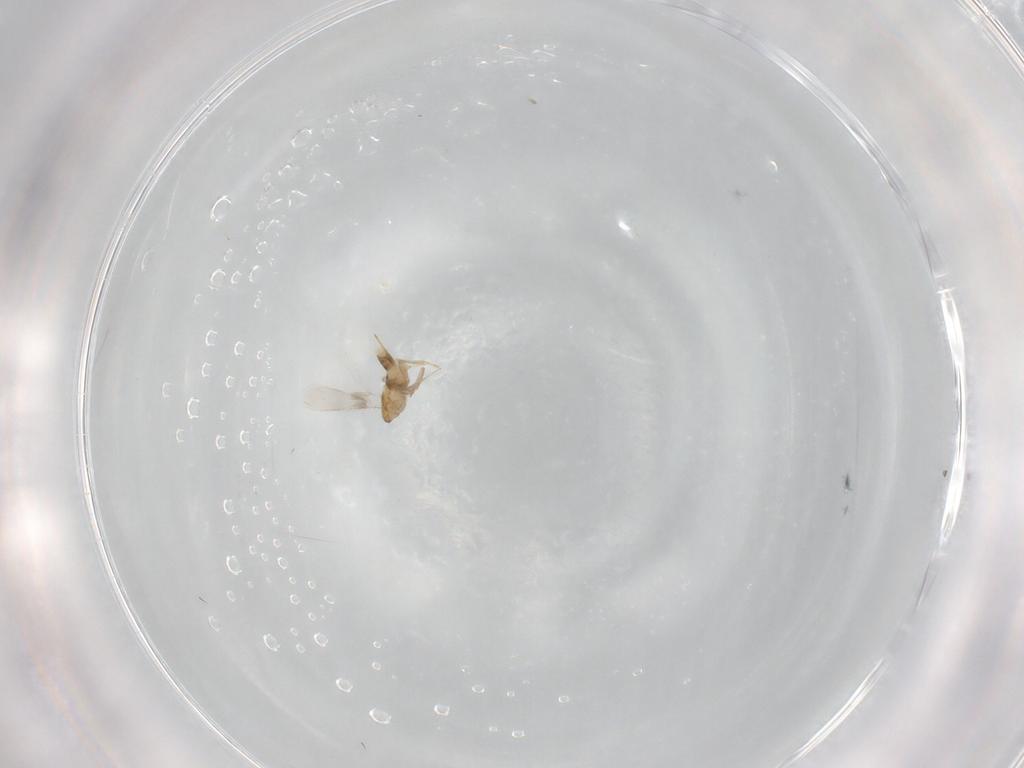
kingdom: Animalia
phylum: Arthropoda
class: Insecta
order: Hymenoptera
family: Aphelinidae
